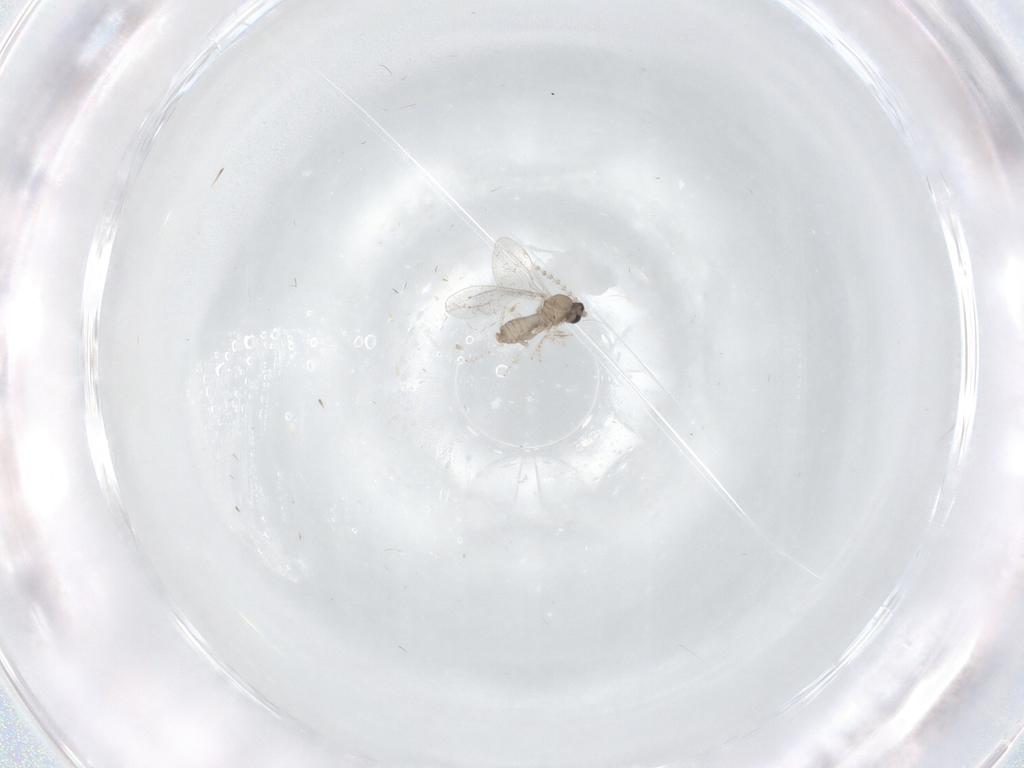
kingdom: Animalia
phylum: Arthropoda
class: Insecta
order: Diptera
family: Cecidomyiidae
